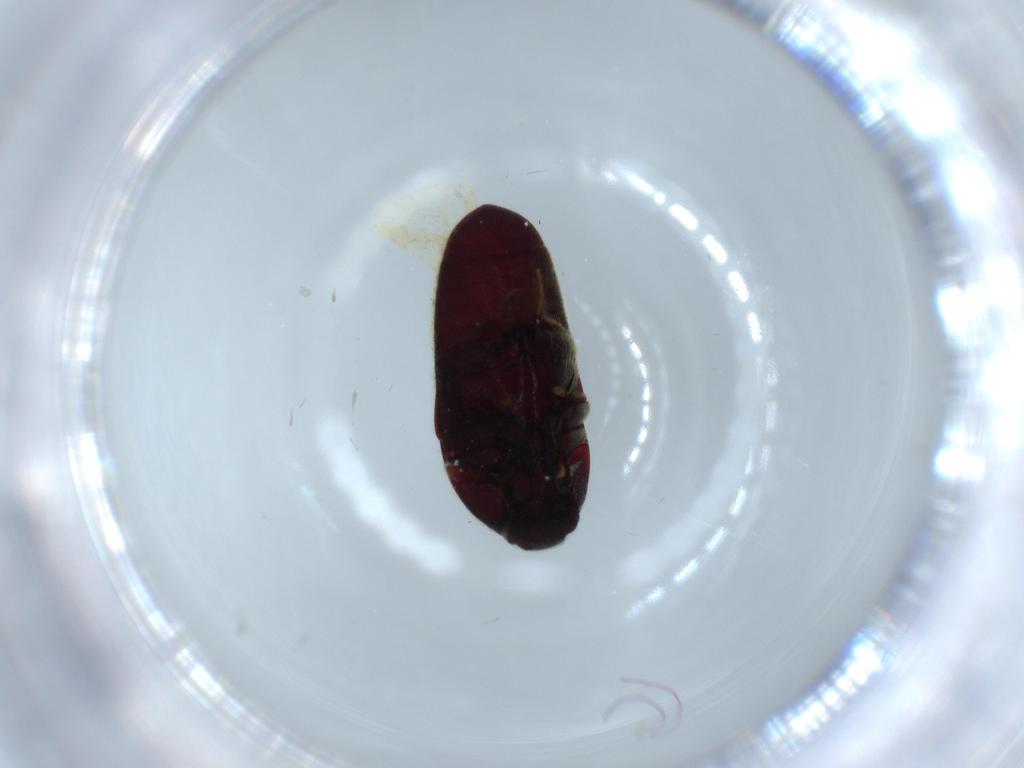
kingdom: Animalia
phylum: Arthropoda
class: Insecta
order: Coleoptera
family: Throscidae
